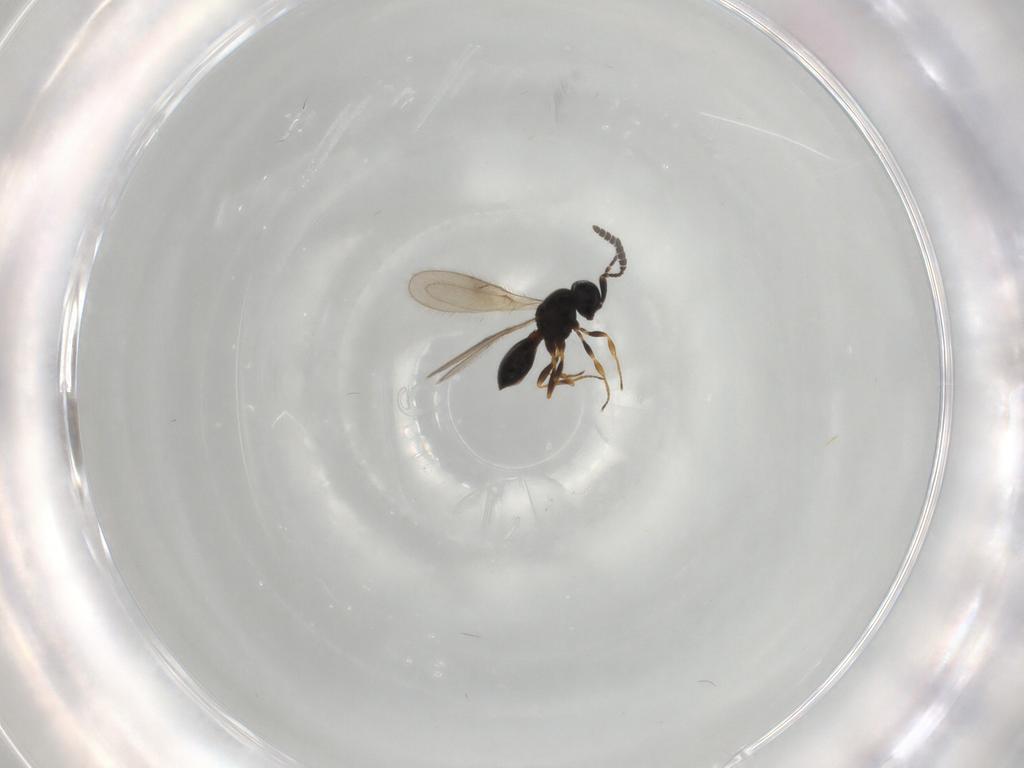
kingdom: Animalia
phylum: Arthropoda
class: Insecta
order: Hymenoptera
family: Scelionidae
